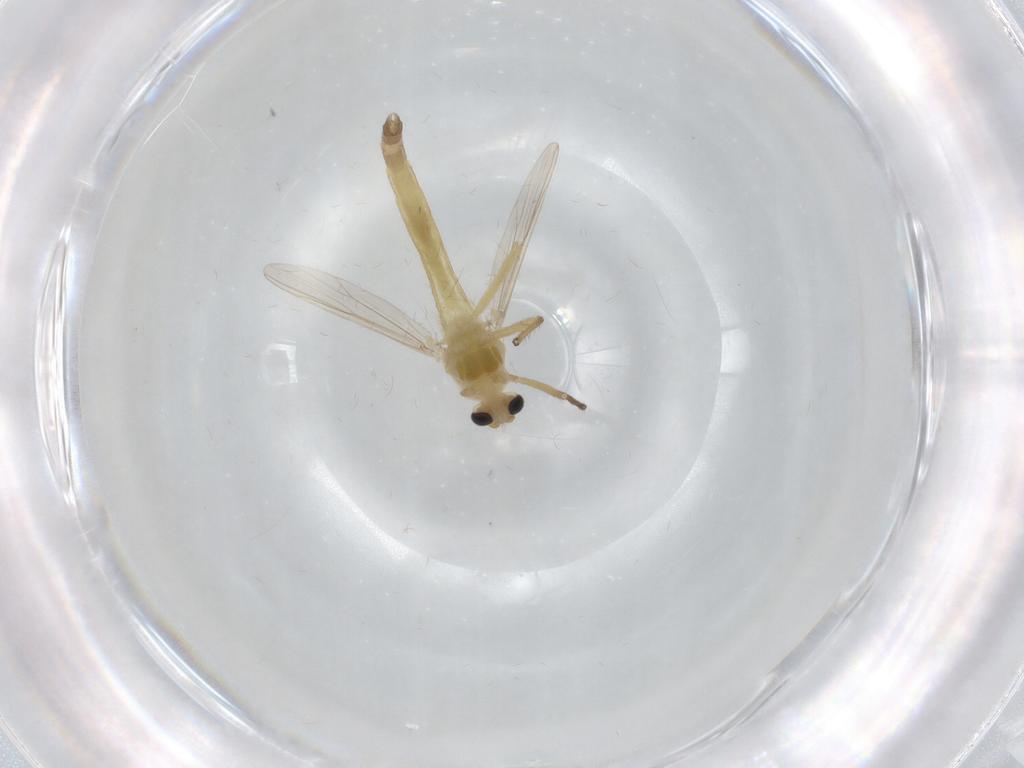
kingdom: Animalia
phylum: Arthropoda
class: Insecta
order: Diptera
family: Chironomidae
